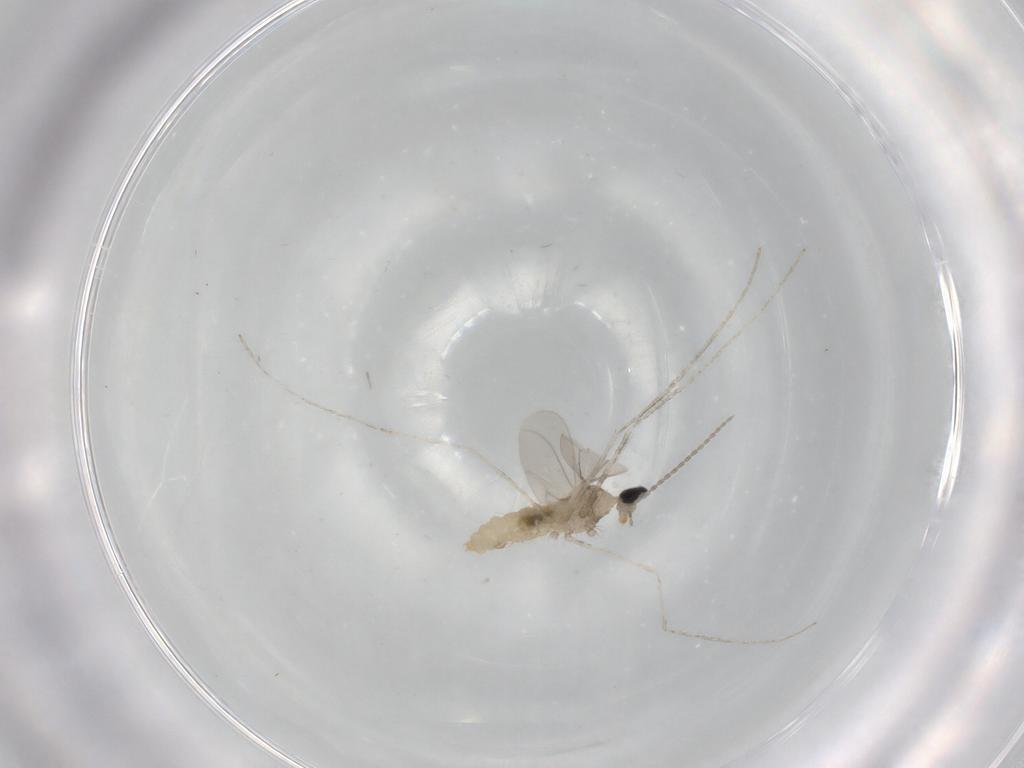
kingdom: Animalia
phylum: Arthropoda
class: Insecta
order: Diptera
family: Cecidomyiidae
